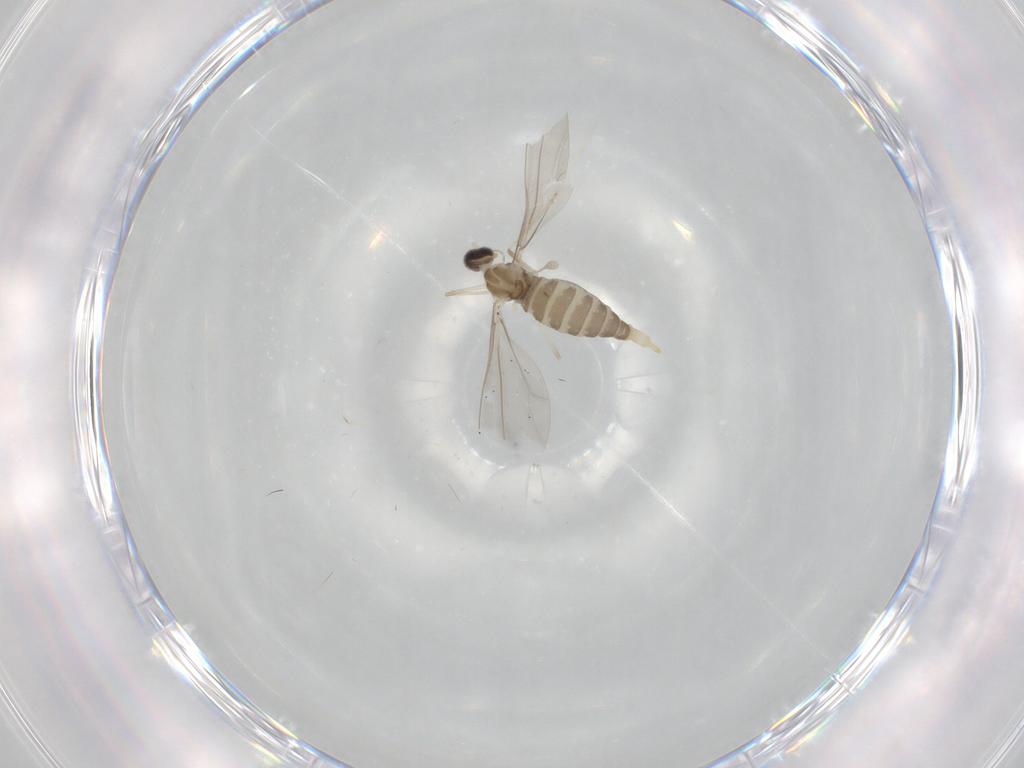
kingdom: Animalia
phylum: Arthropoda
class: Insecta
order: Diptera
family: Cecidomyiidae
